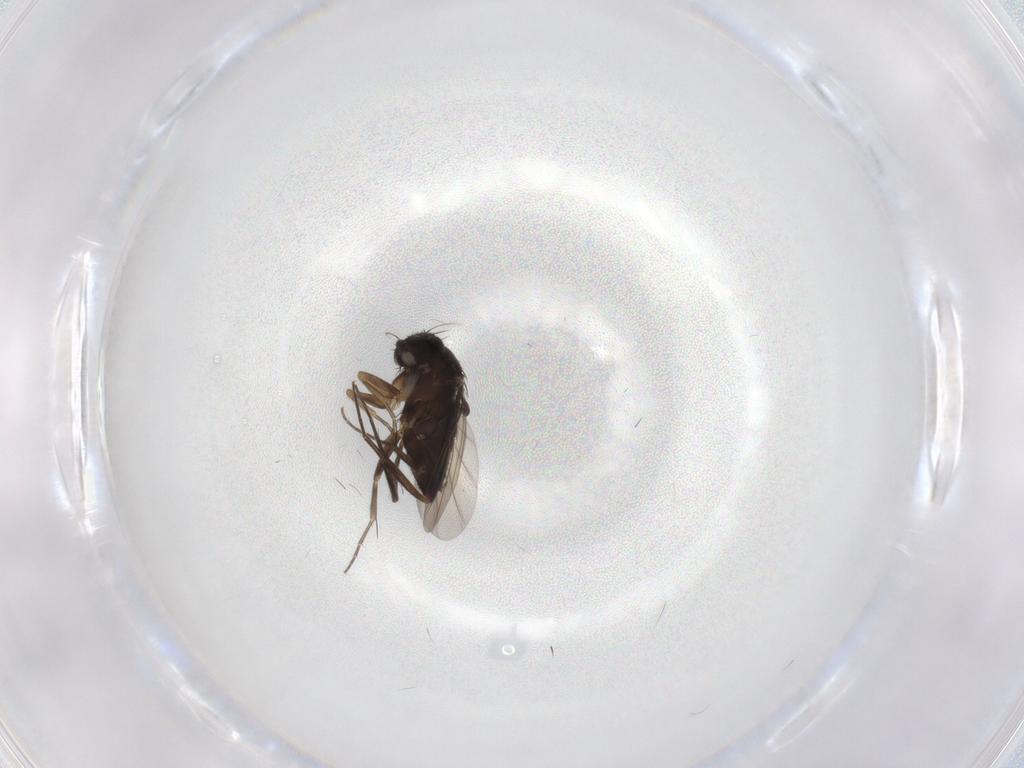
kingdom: Animalia
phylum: Arthropoda
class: Insecta
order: Diptera
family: Phoridae
